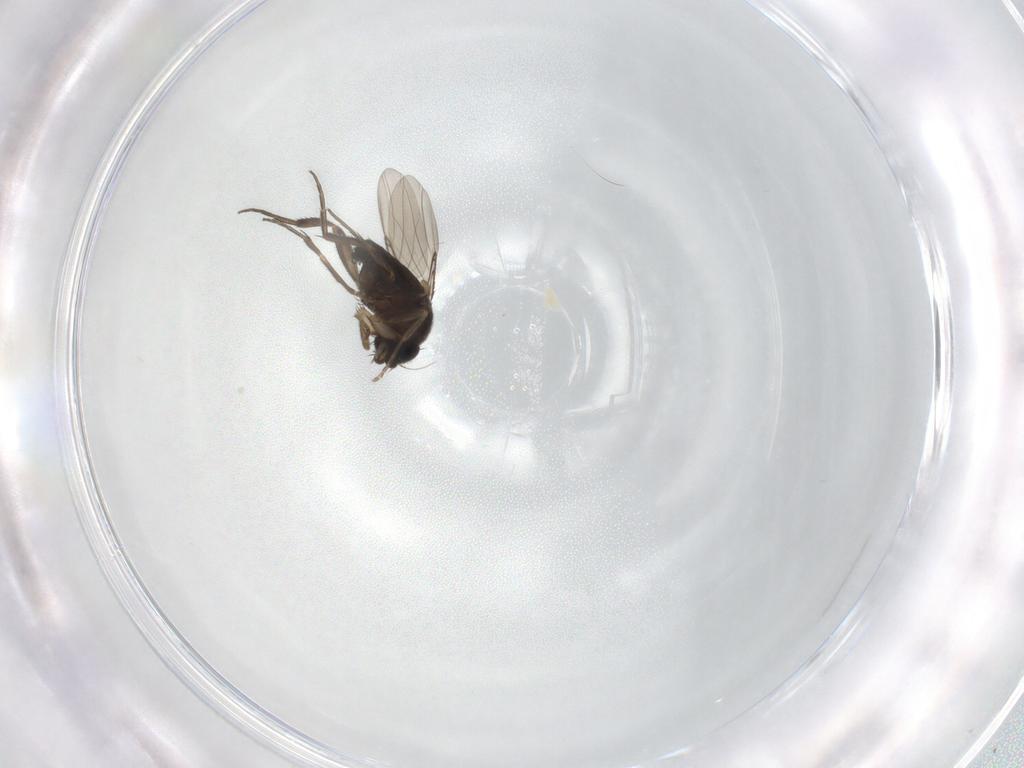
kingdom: Animalia
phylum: Arthropoda
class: Insecta
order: Diptera
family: Phoridae
